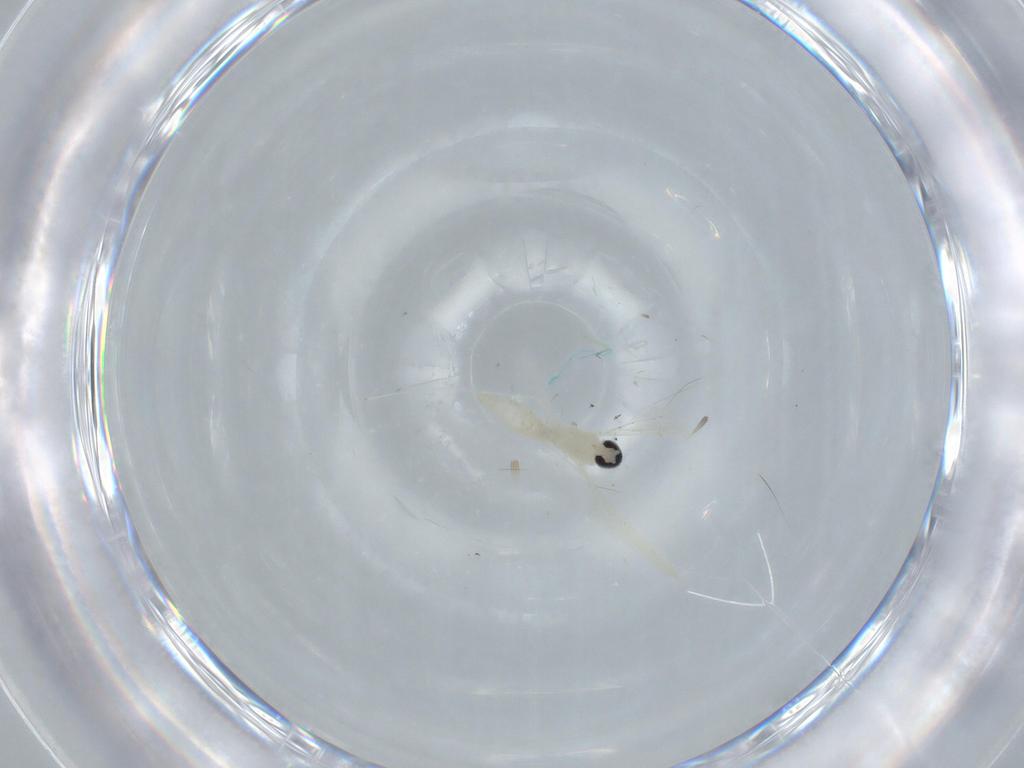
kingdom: Animalia
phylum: Arthropoda
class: Insecta
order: Diptera
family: Cecidomyiidae
